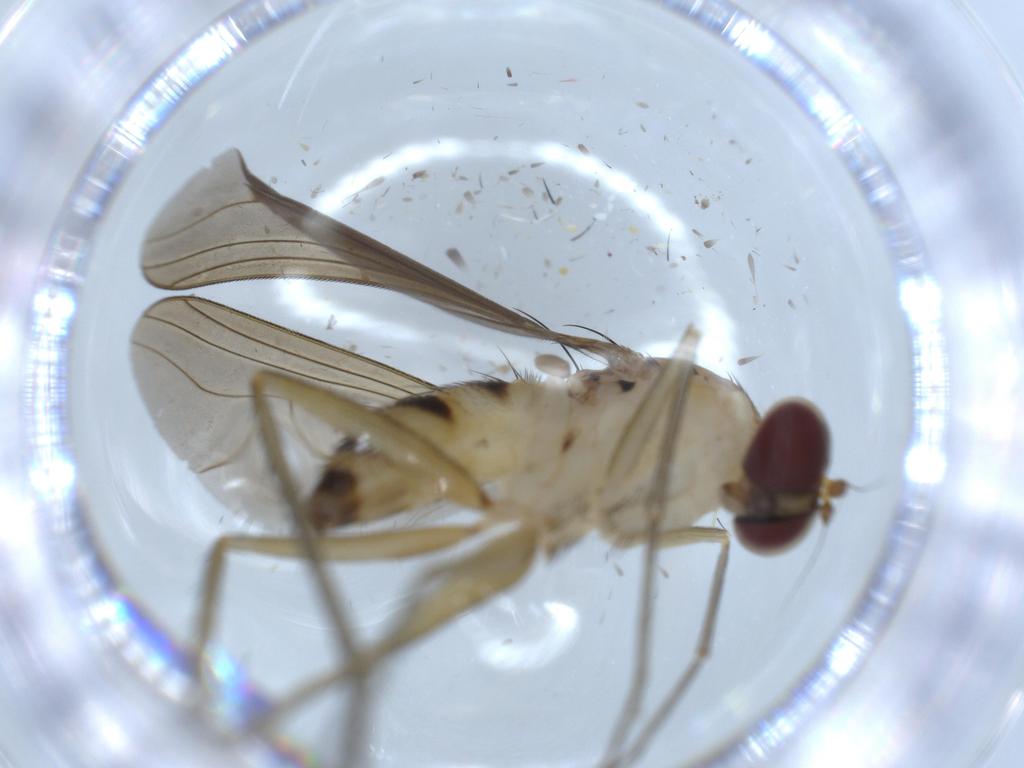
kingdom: Animalia
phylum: Arthropoda
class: Insecta
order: Diptera
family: Dolichopodidae
